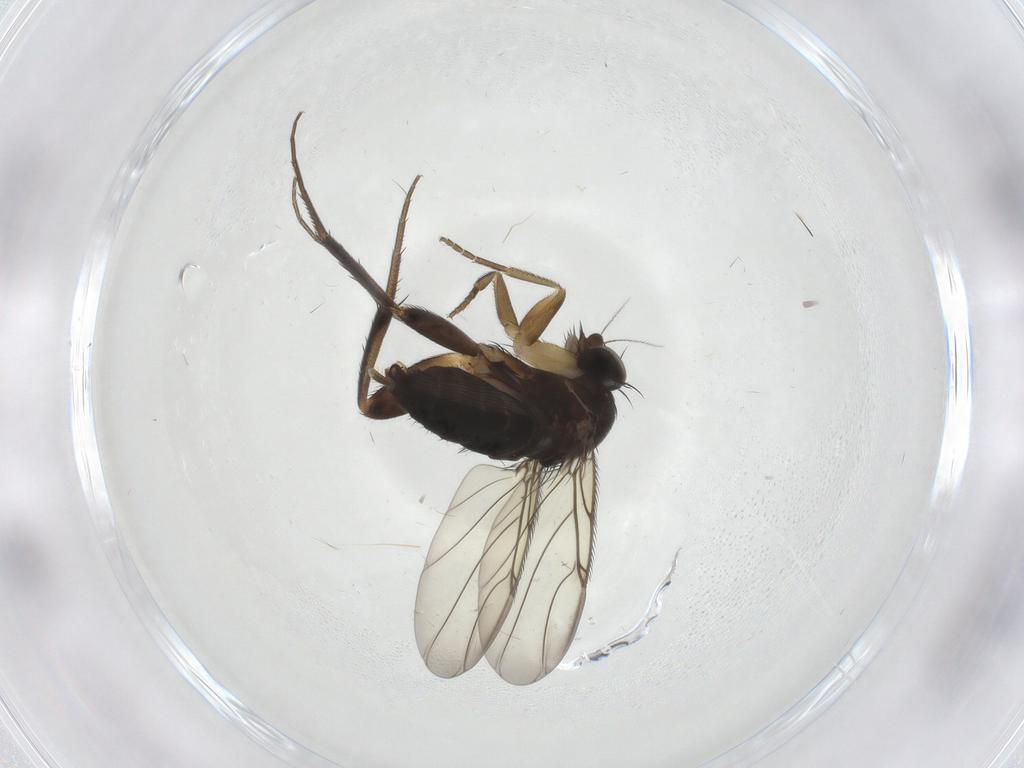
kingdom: Animalia
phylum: Arthropoda
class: Insecta
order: Diptera
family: Phoridae
